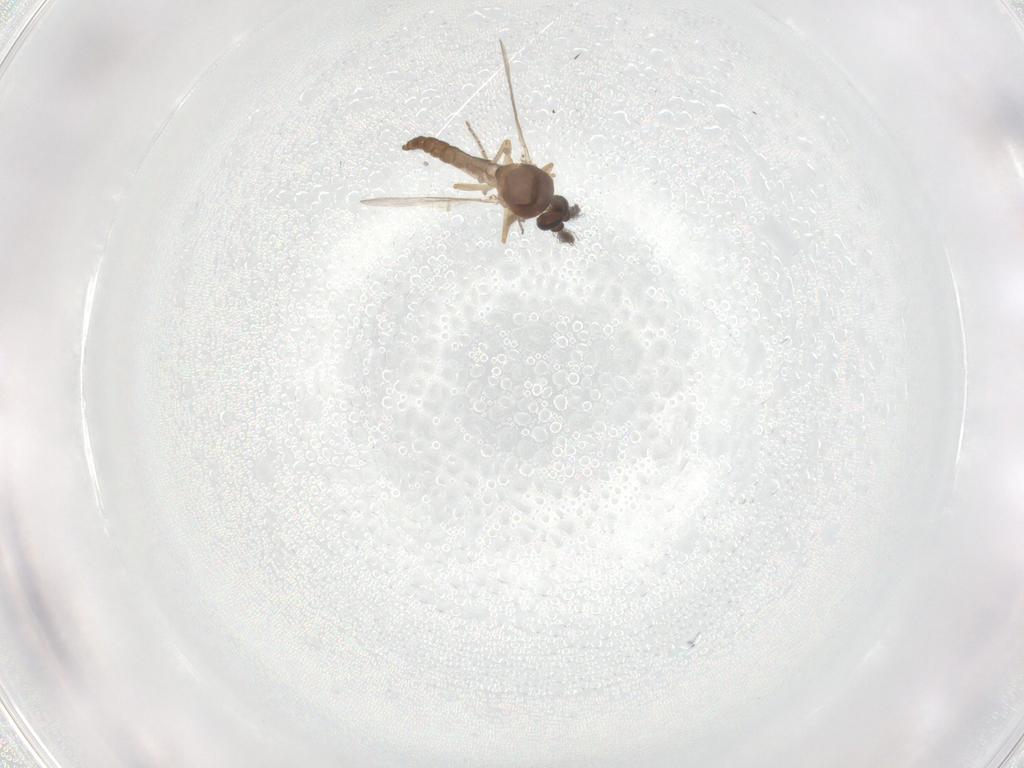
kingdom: Animalia
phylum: Arthropoda
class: Insecta
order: Diptera
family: Ceratopogonidae
